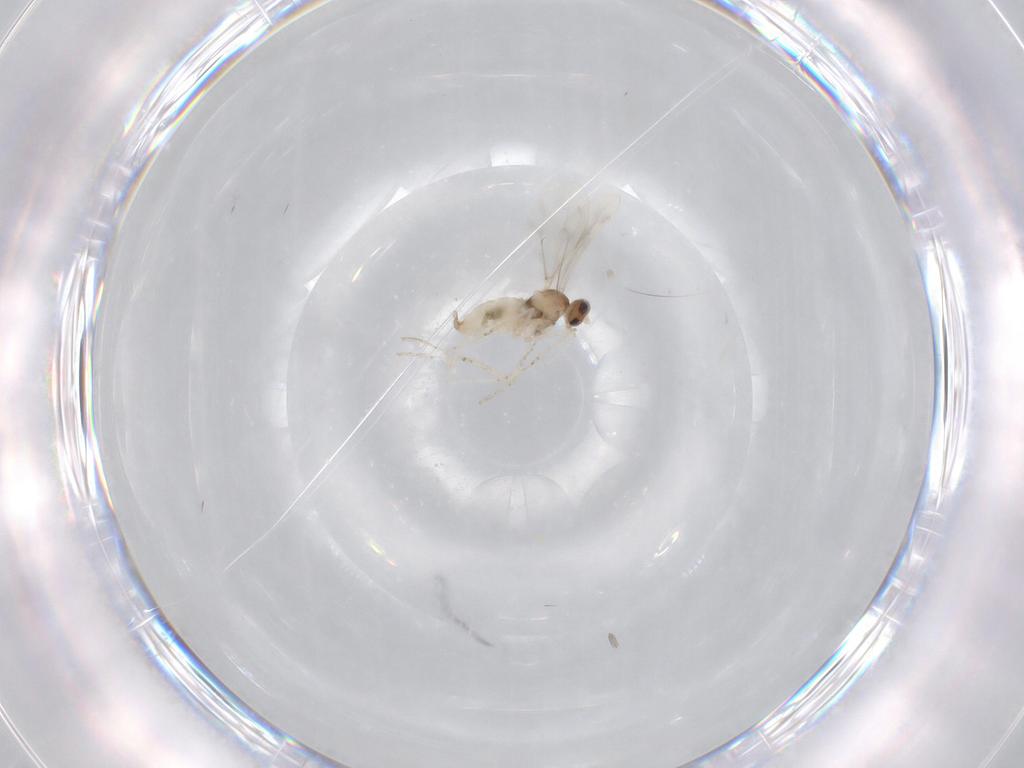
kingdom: Animalia
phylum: Arthropoda
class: Insecta
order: Diptera
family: Cecidomyiidae
